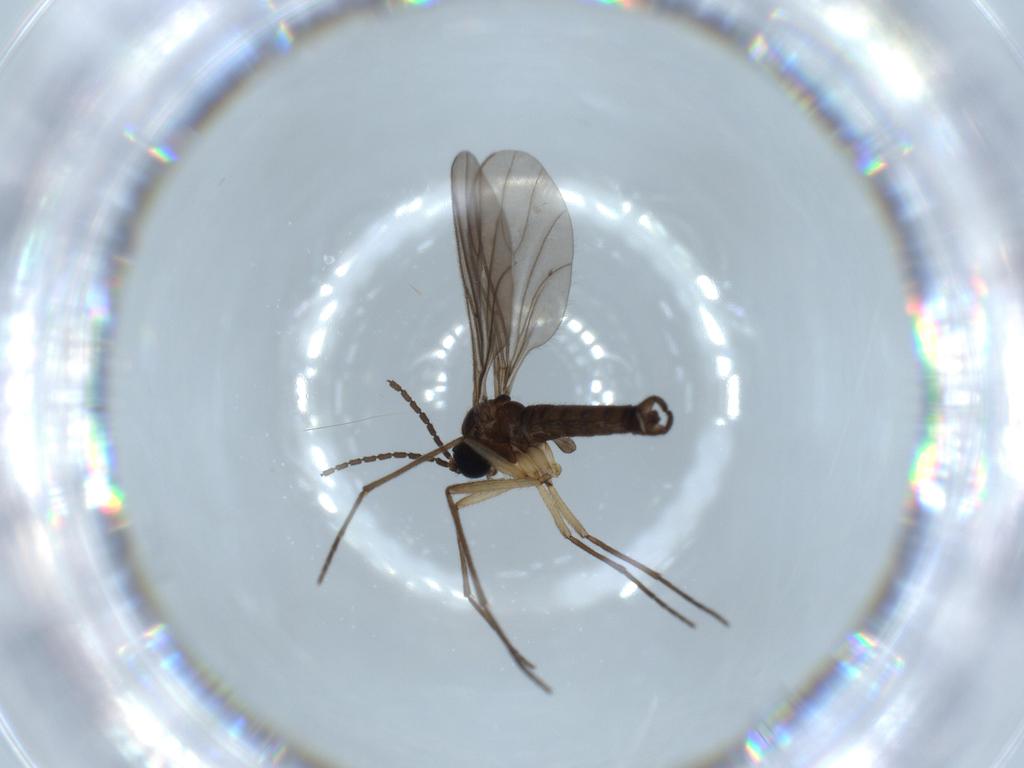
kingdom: Animalia
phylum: Arthropoda
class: Insecta
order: Diptera
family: Sciaridae
